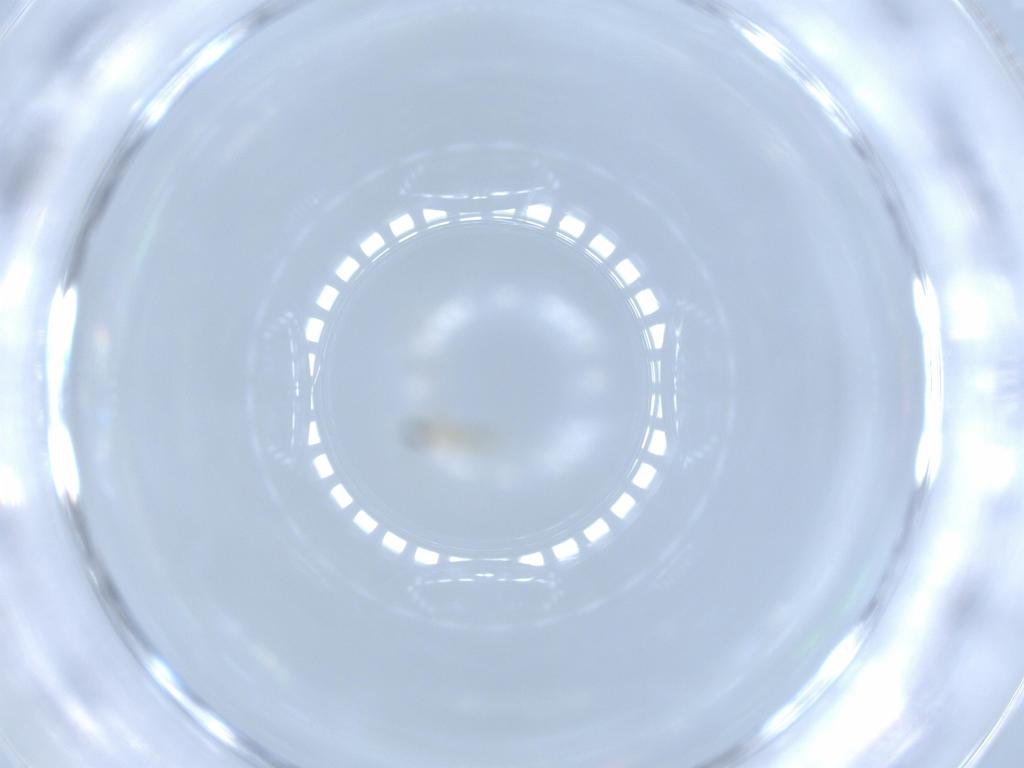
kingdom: Animalia
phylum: Arthropoda
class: Insecta
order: Diptera
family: Cecidomyiidae
